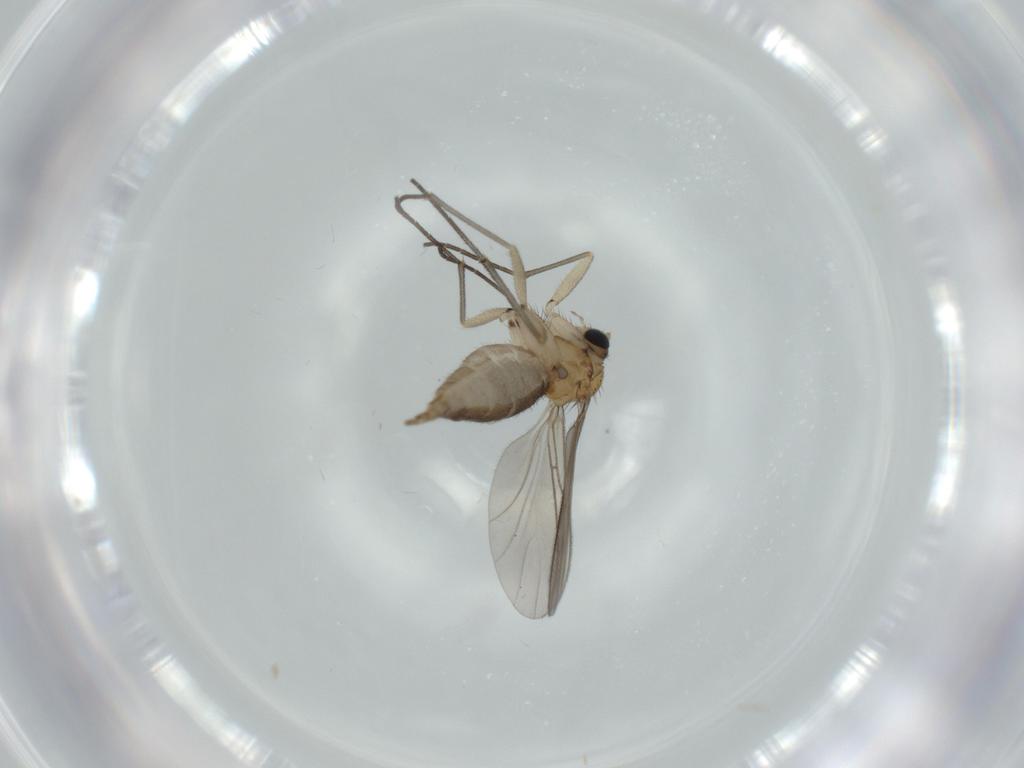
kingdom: Animalia
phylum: Arthropoda
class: Insecta
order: Diptera
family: Sciaridae
